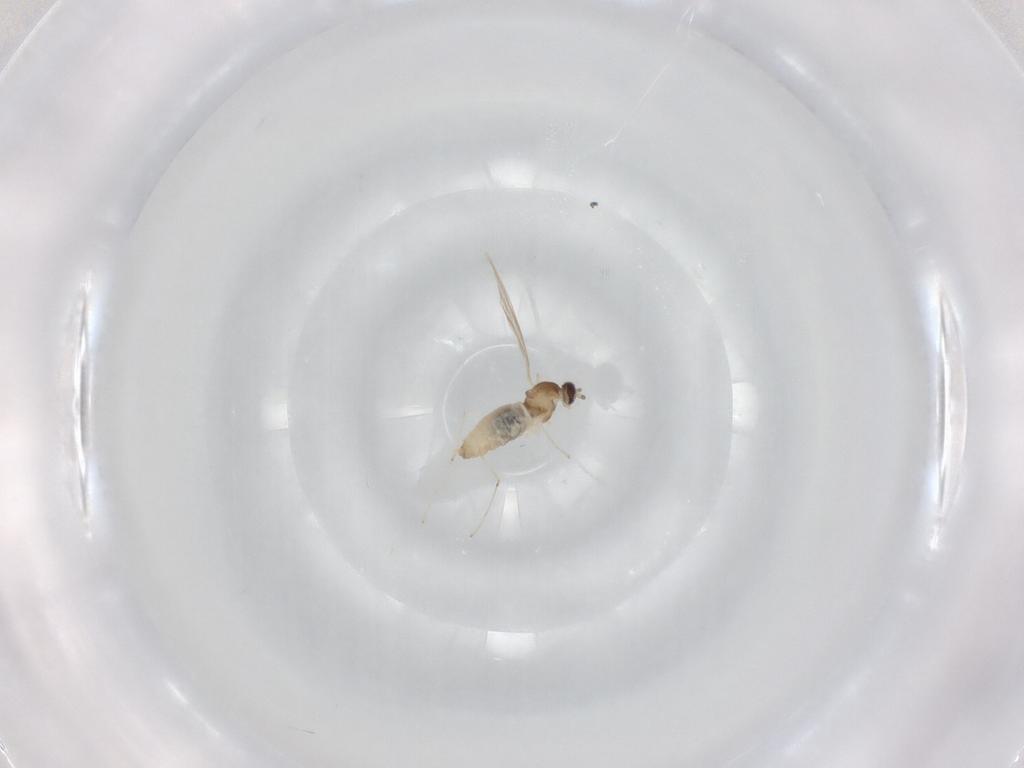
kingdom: Animalia
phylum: Arthropoda
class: Insecta
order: Diptera
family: Cecidomyiidae
